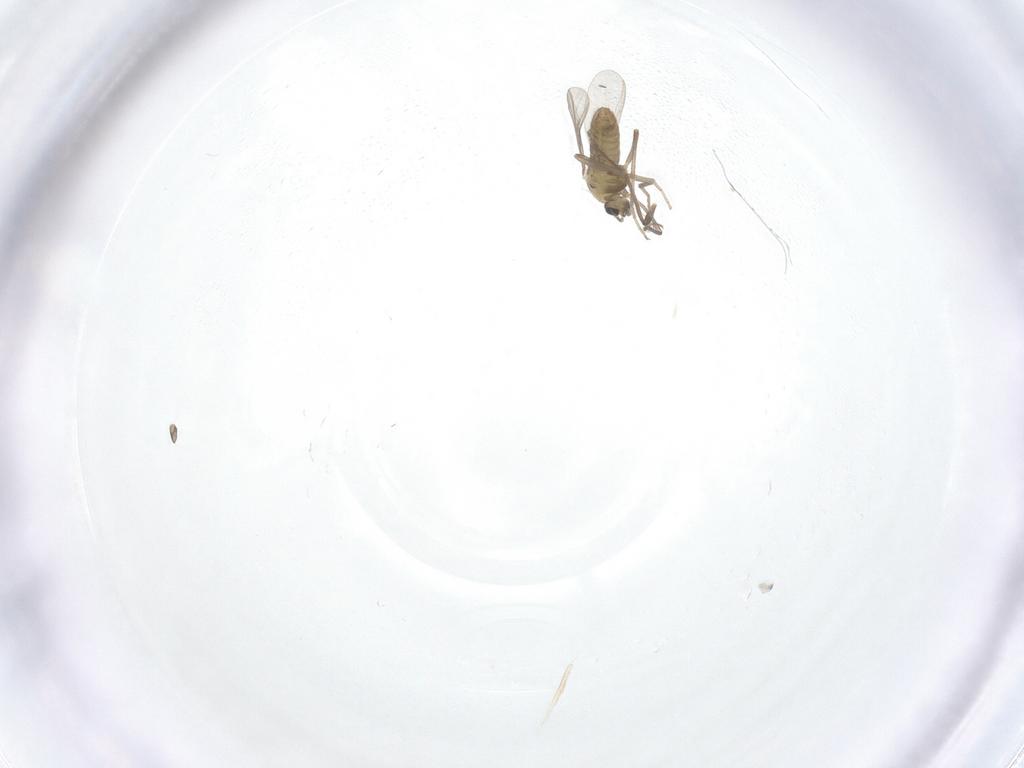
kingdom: Animalia
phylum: Arthropoda
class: Insecta
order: Diptera
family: Chironomidae
